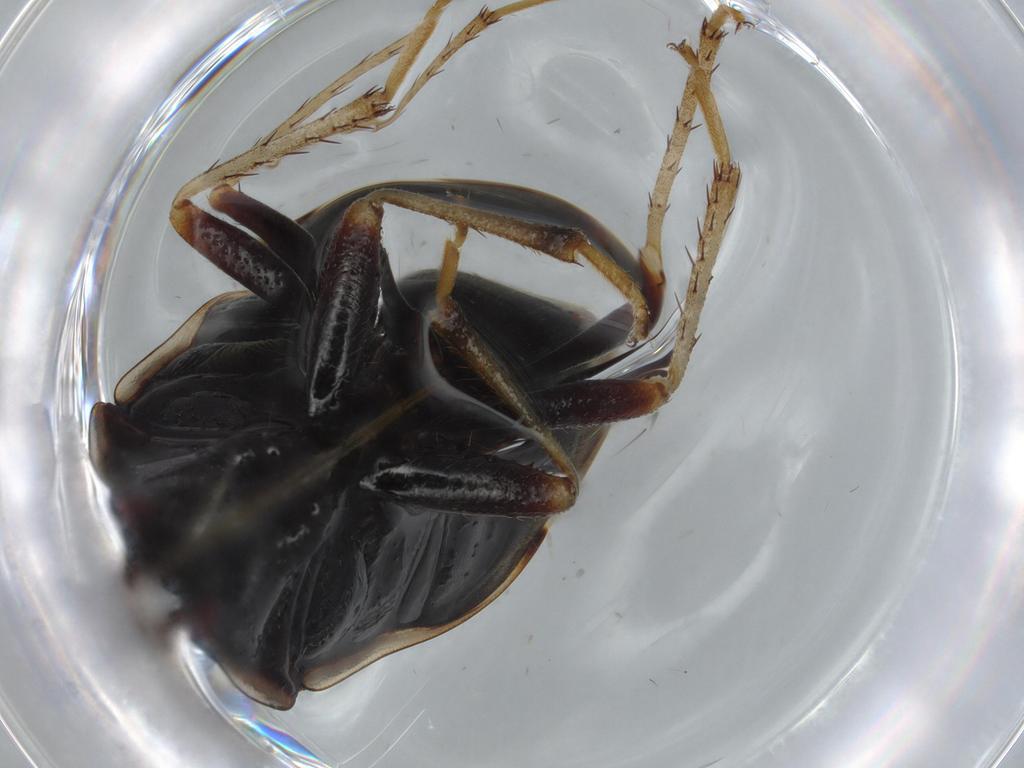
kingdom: Animalia
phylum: Arthropoda
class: Insecta
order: Hemiptera
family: Rhyparochromidae
